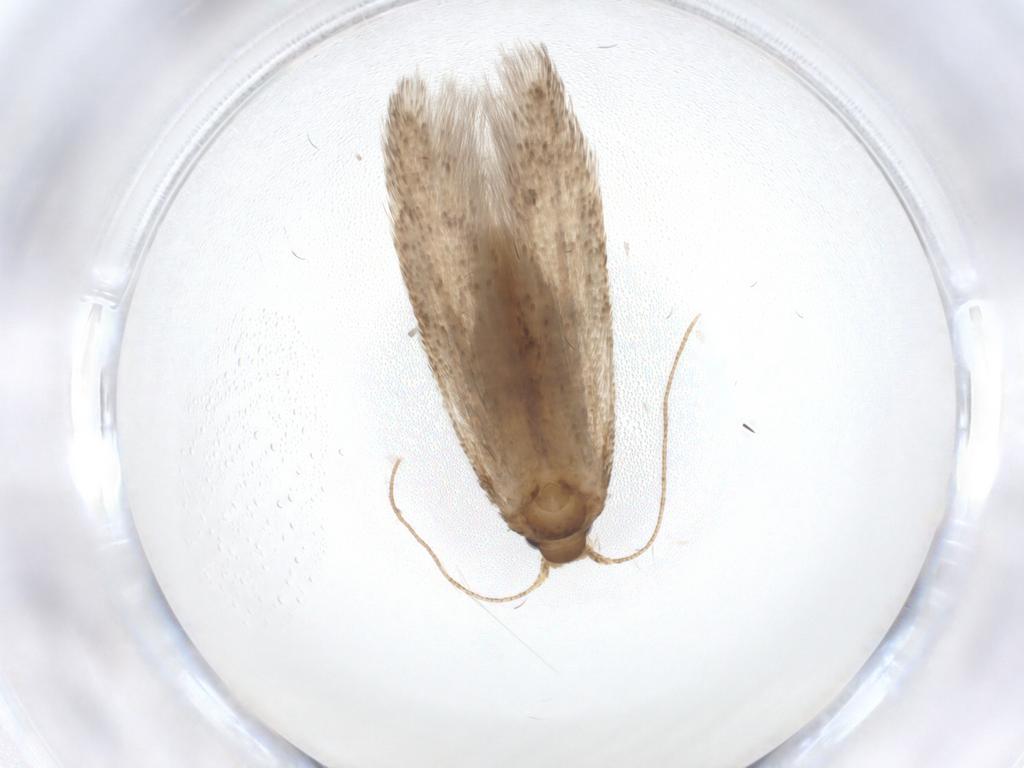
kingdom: Animalia
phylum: Arthropoda
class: Insecta
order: Lepidoptera
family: Blastobasidae
